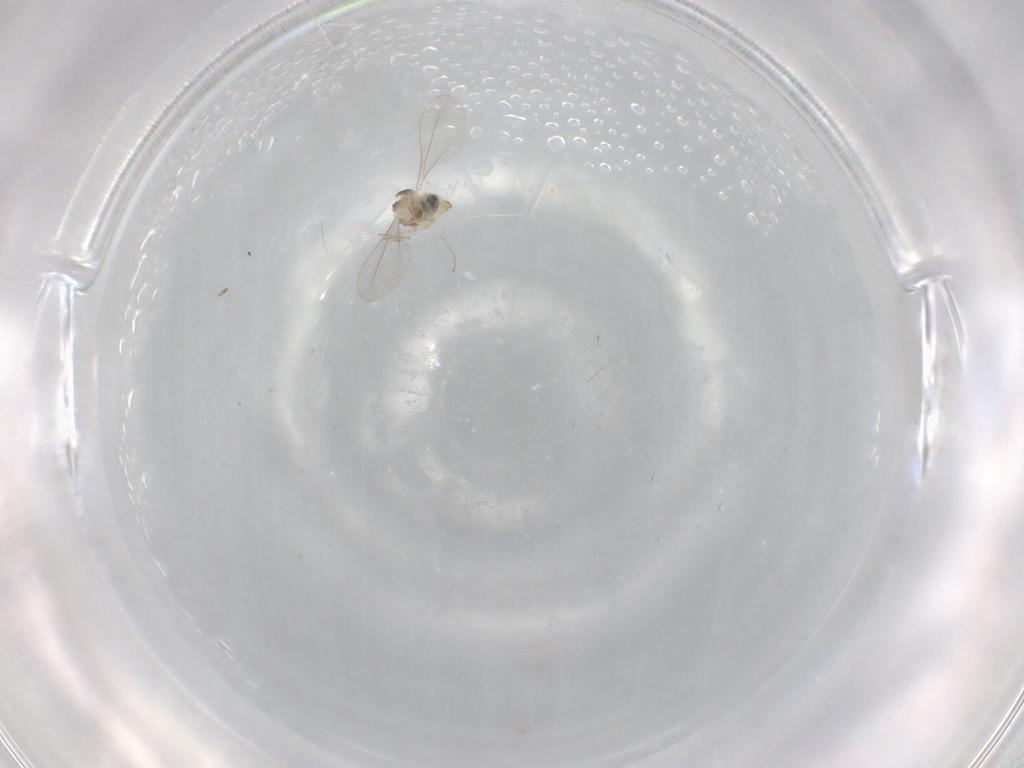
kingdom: Animalia
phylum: Arthropoda
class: Insecta
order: Diptera
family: Cecidomyiidae
